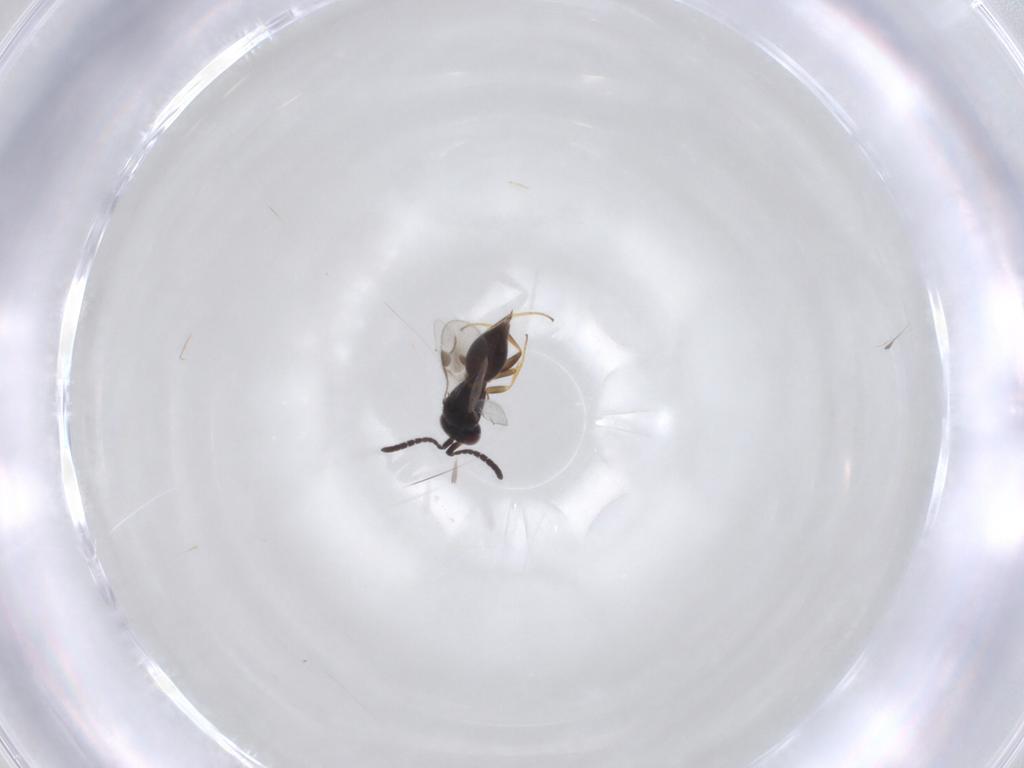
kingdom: Animalia
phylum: Arthropoda
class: Insecta
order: Hymenoptera
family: Megaspilidae
